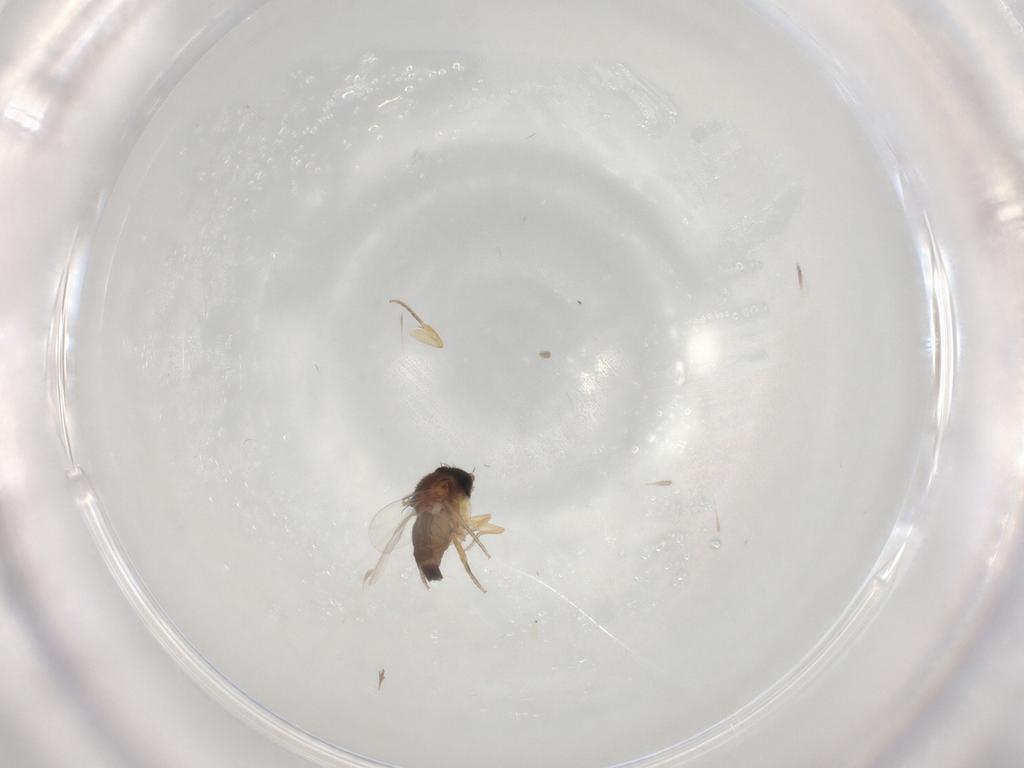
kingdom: Animalia
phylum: Arthropoda
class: Insecta
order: Diptera
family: Phoridae
